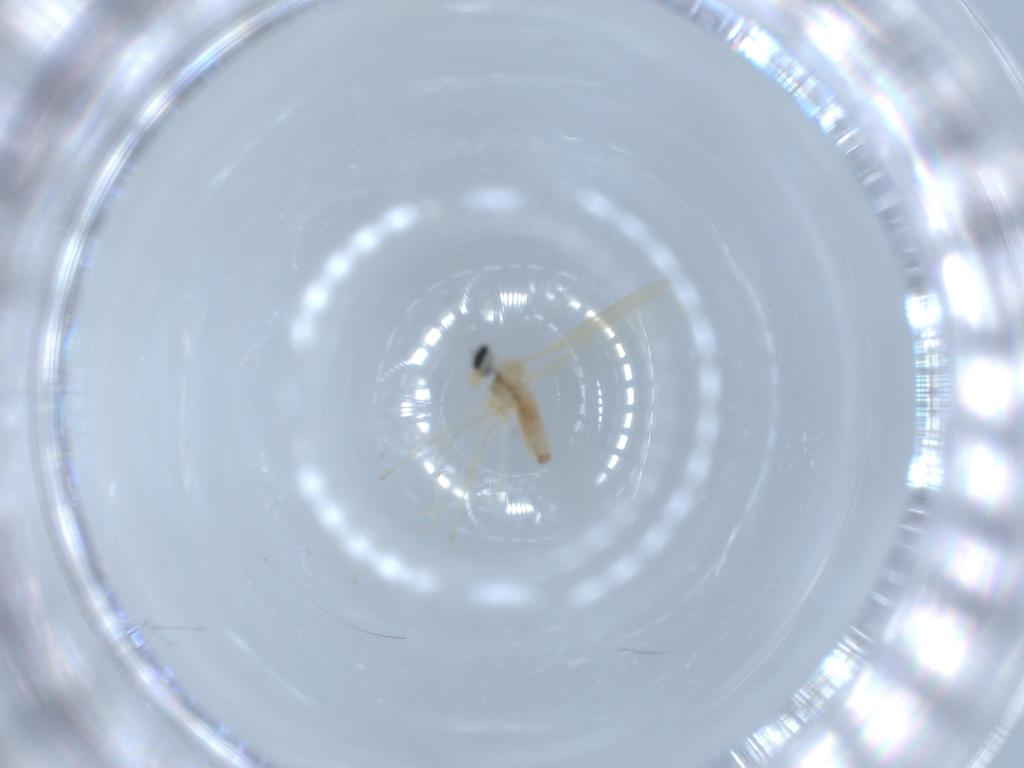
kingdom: Animalia
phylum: Arthropoda
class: Insecta
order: Diptera
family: Cecidomyiidae
